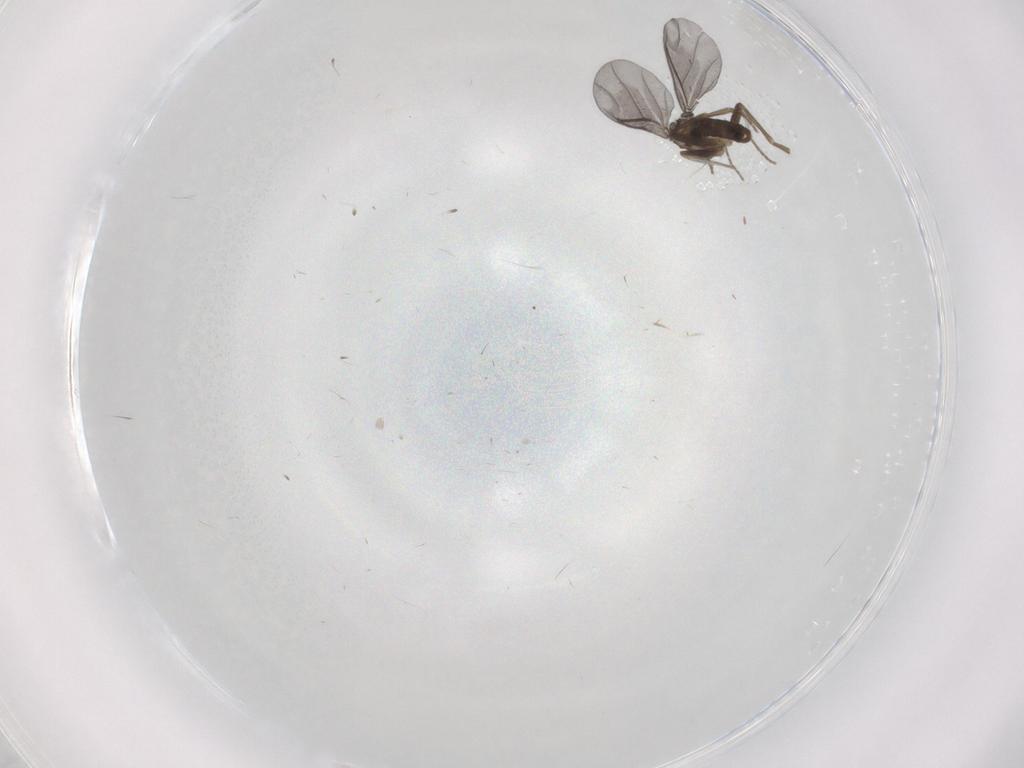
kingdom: Animalia
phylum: Arthropoda
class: Insecta
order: Diptera
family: Phoridae
